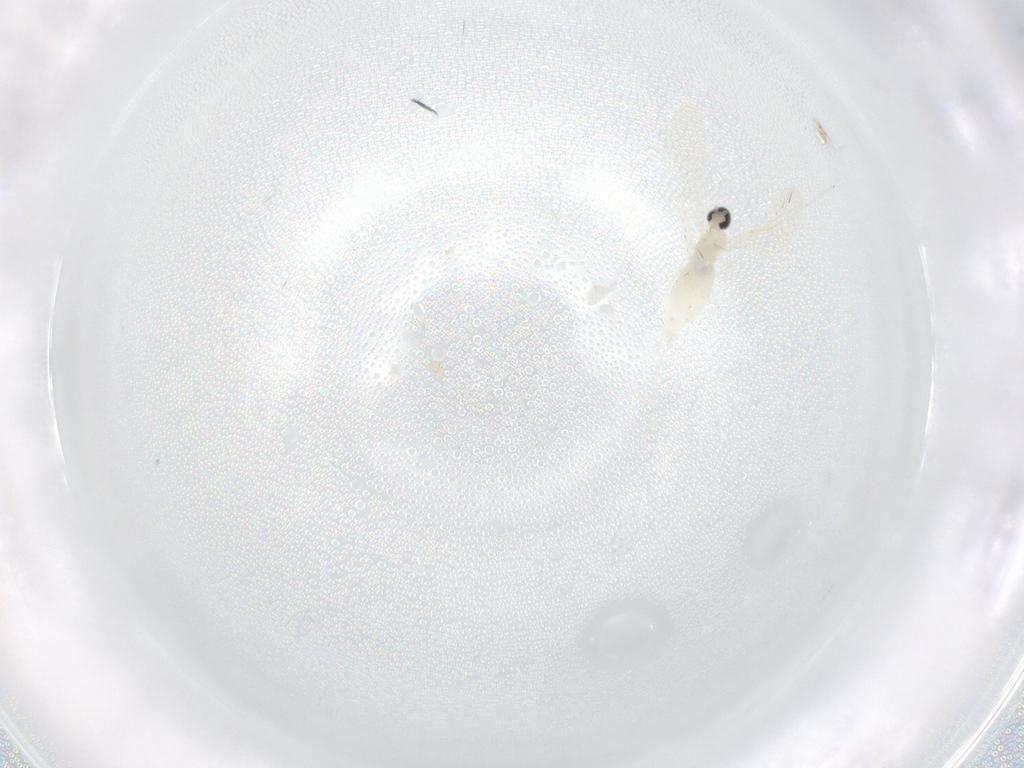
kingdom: Animalia
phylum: Arthropoda
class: Insecta
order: Diptera
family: Cecidomyiidae
